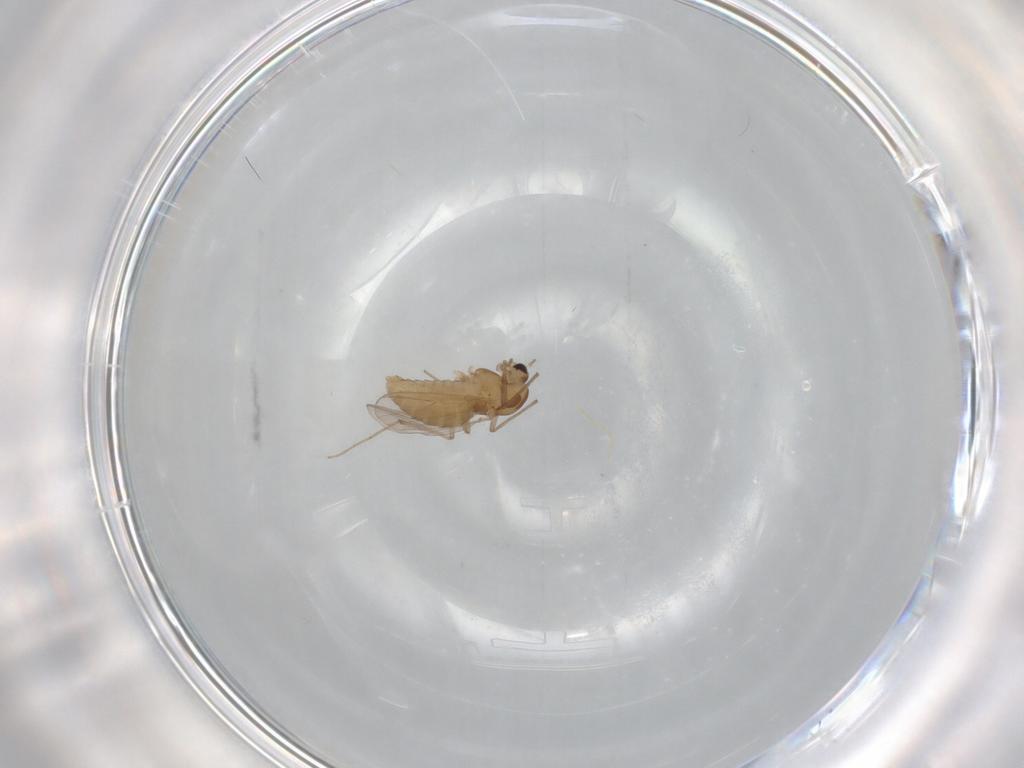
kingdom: Animalia
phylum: Arthropoda
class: Insecta
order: Diptera
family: Chironomidae
